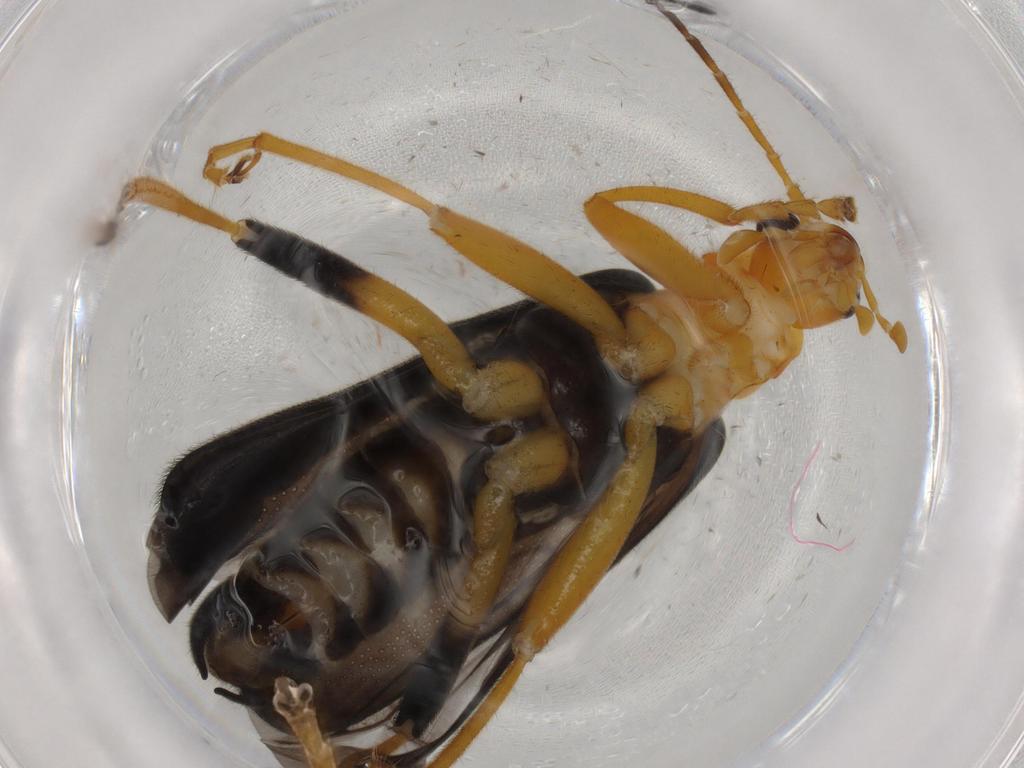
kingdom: Animalia
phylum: Arthropoda
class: Insecta
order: Coleoptera
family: Cantharidae
